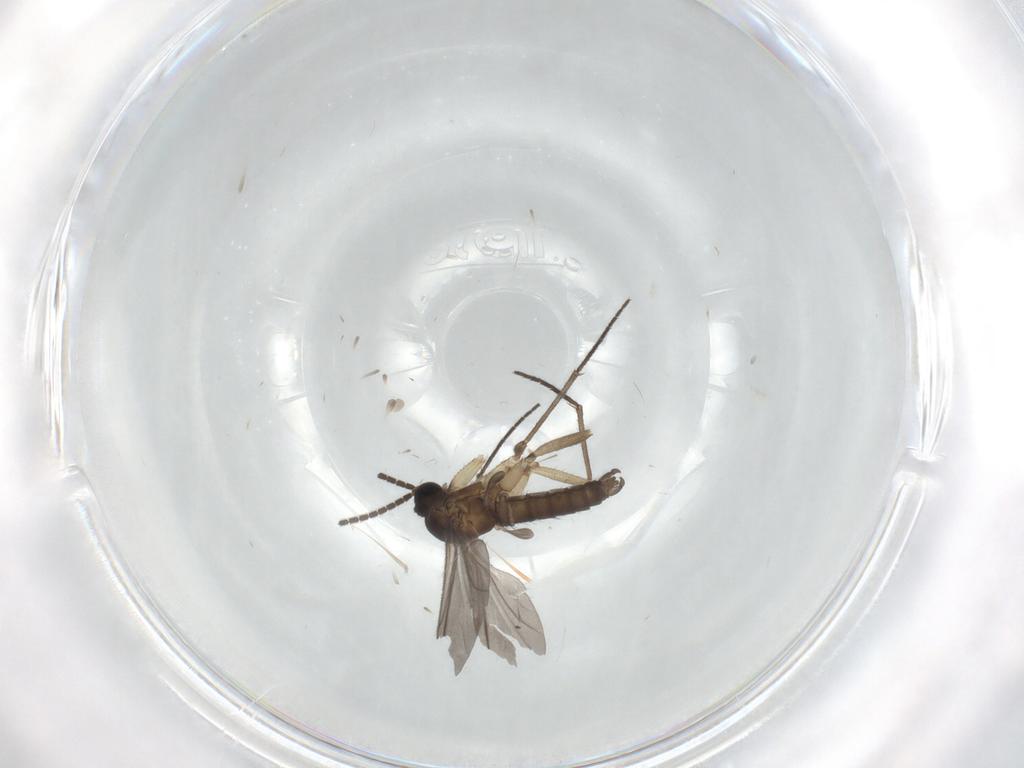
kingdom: Animalia
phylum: Arthropoda
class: Insecta
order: Diptera
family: Sciaridae
